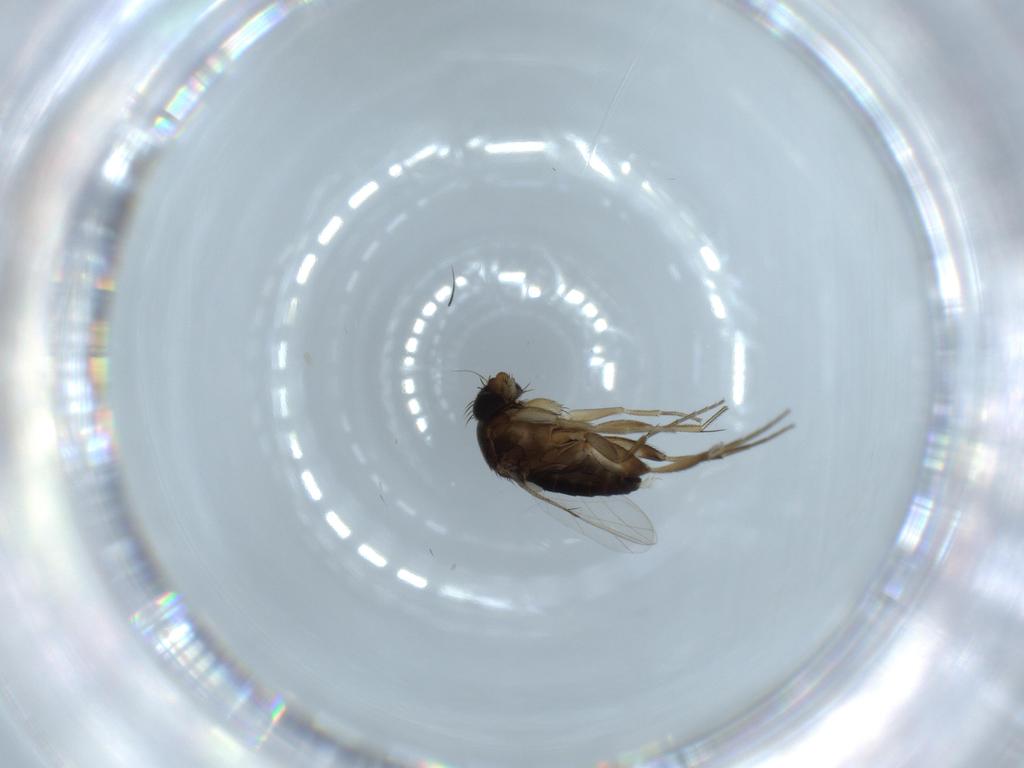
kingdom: Animalia
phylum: Arthropoda
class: Insecta
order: Diptera
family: Phoridae
